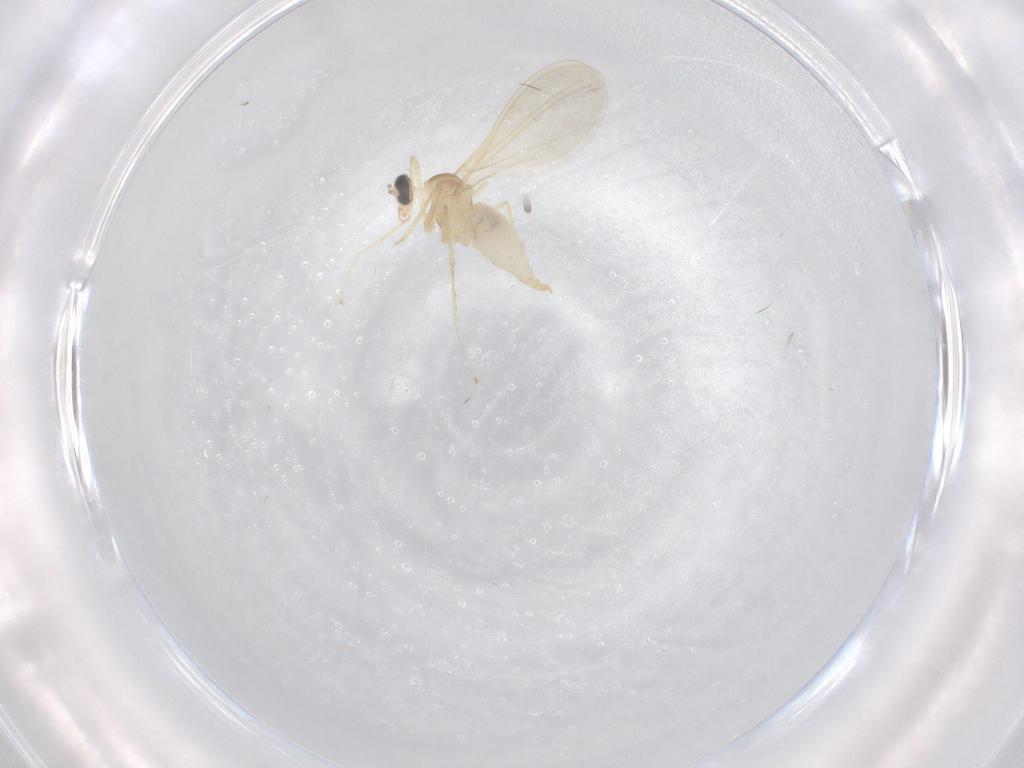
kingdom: Animalia
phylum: Arthropoda
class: Insecta
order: Diptera
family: Cecidomyiidae
